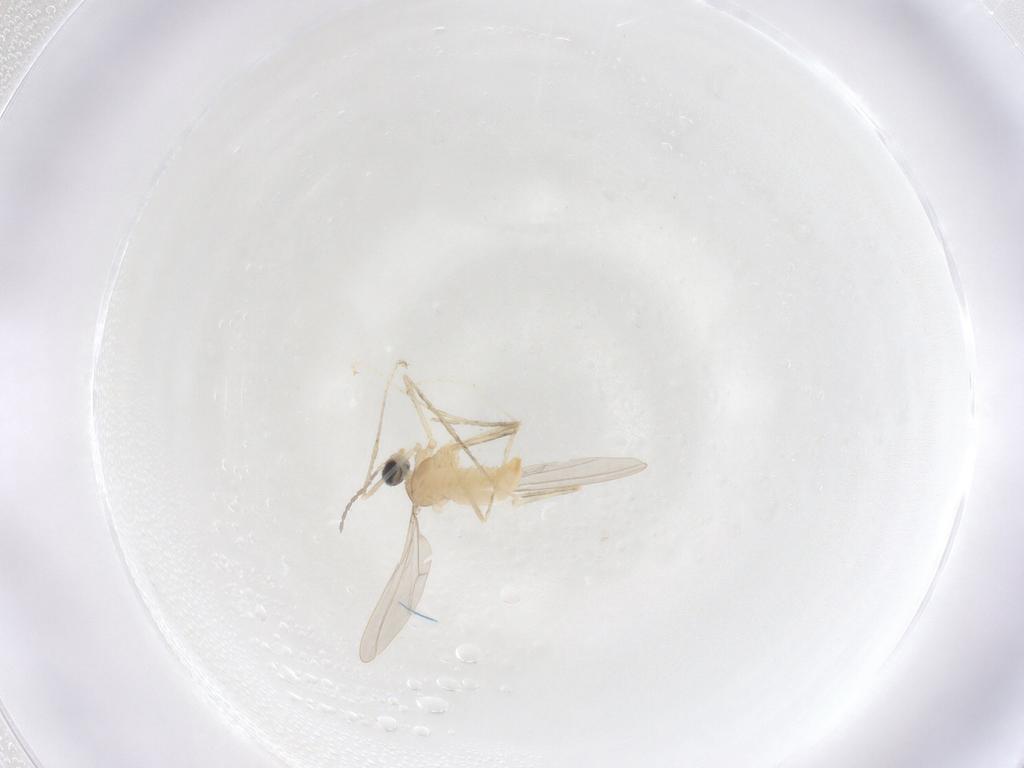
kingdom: Animalia
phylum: Arthropoda
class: Insecta
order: Diptera
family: Chironomidae
